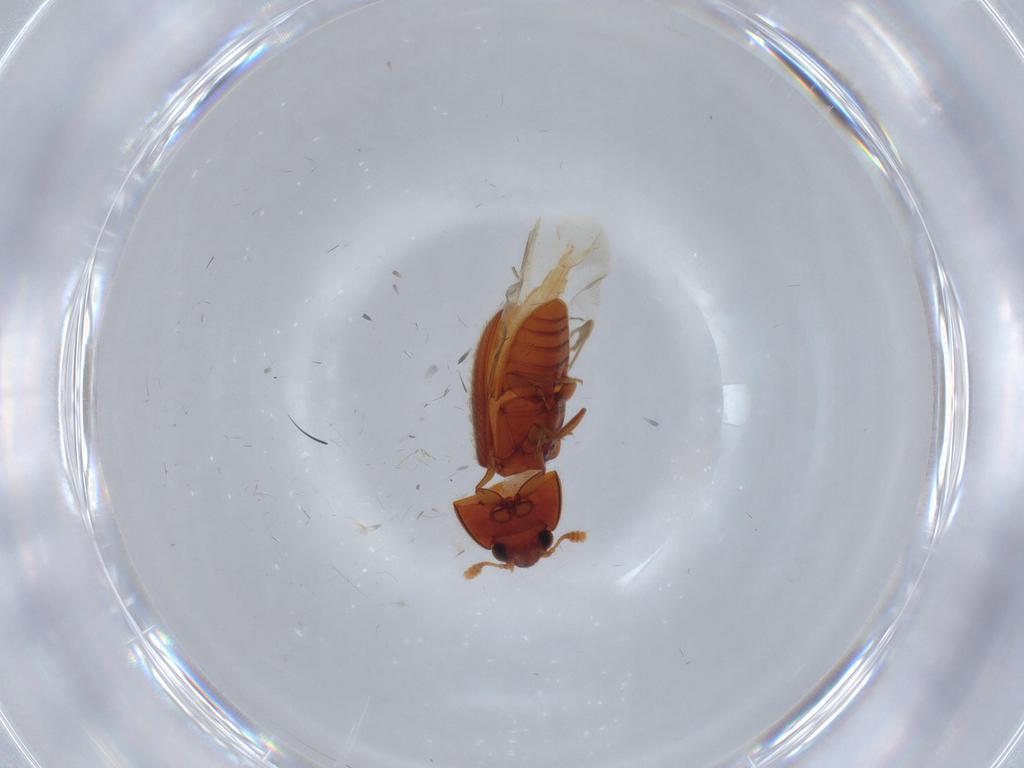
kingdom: Animalia
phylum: Arthropoda
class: Insecta
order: Coleoptera
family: Biphyllidae
